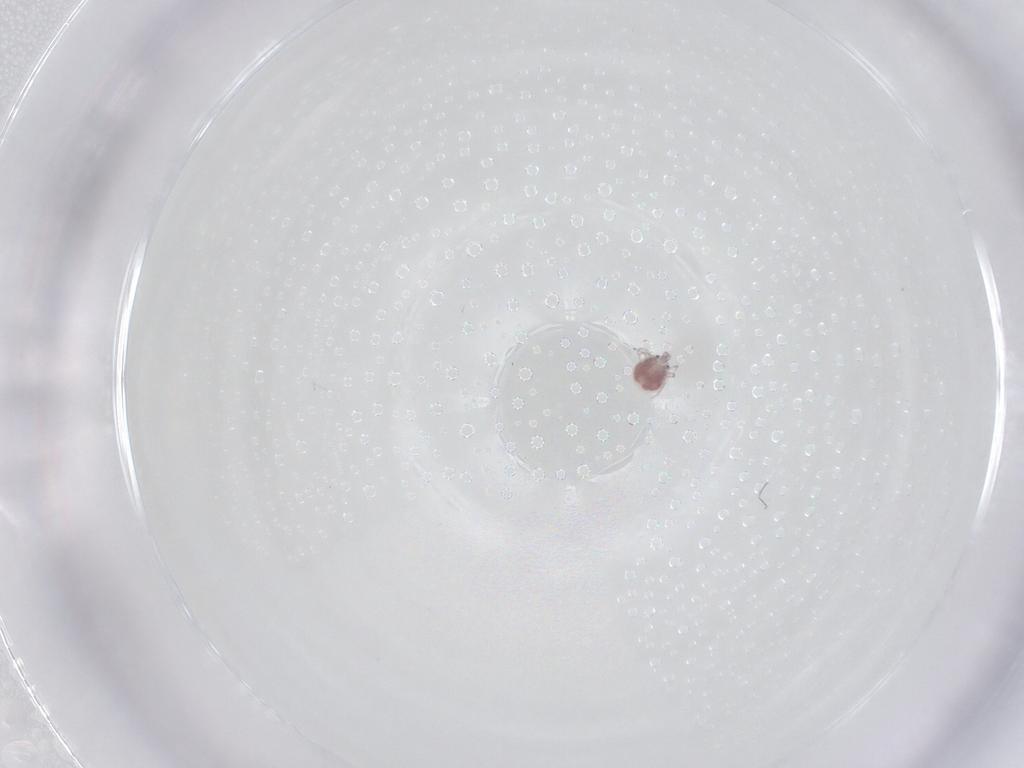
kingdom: Animalia
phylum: Arthropoda
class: Arachnida
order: Trombidiformes
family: Pionidae
